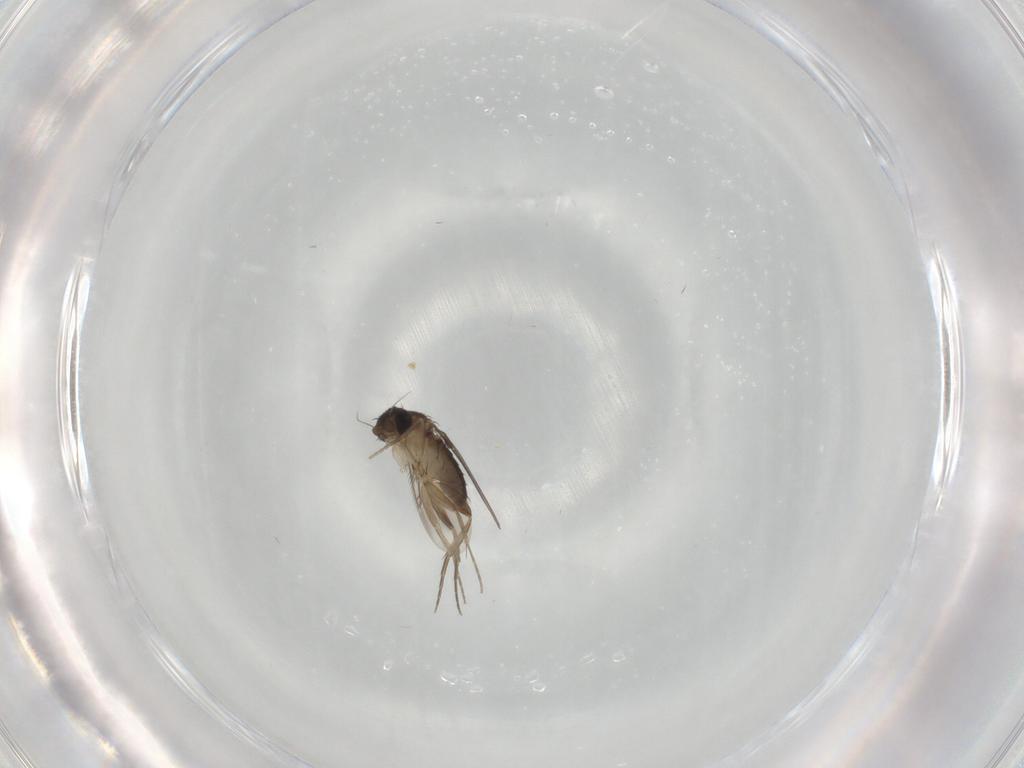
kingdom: Animalia
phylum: Arthropoda
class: Insecta
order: Diptera
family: Phoridae
